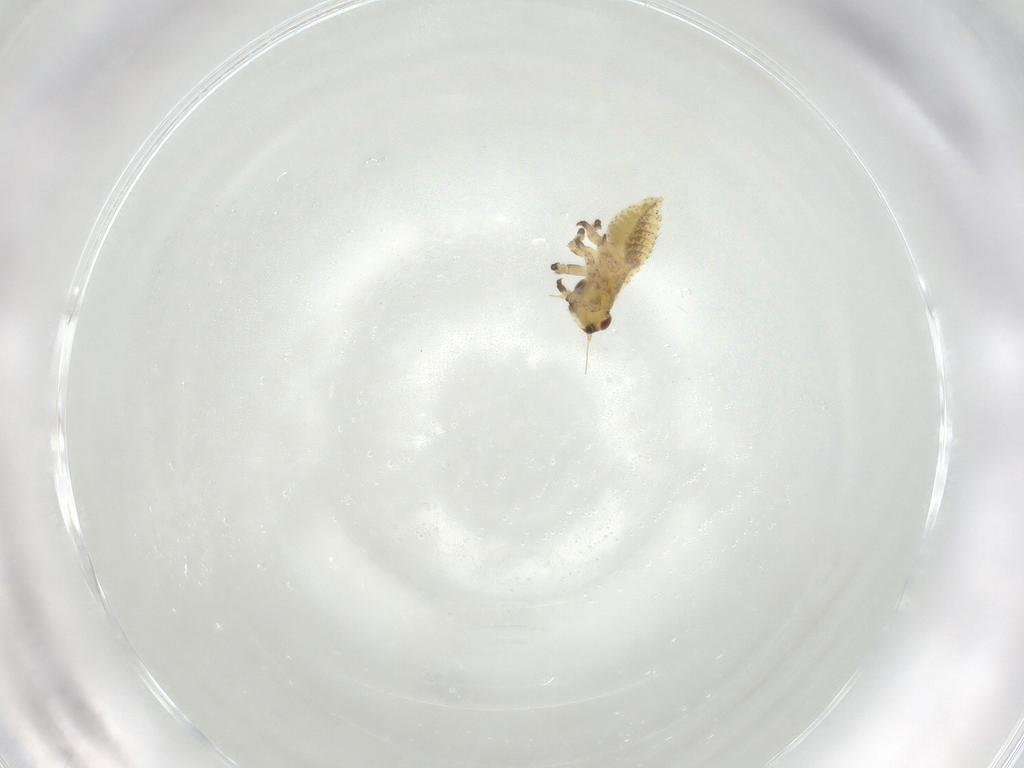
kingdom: Animalia
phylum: Arthropoda
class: Insecta
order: Hemiptera
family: Cicadellidae
